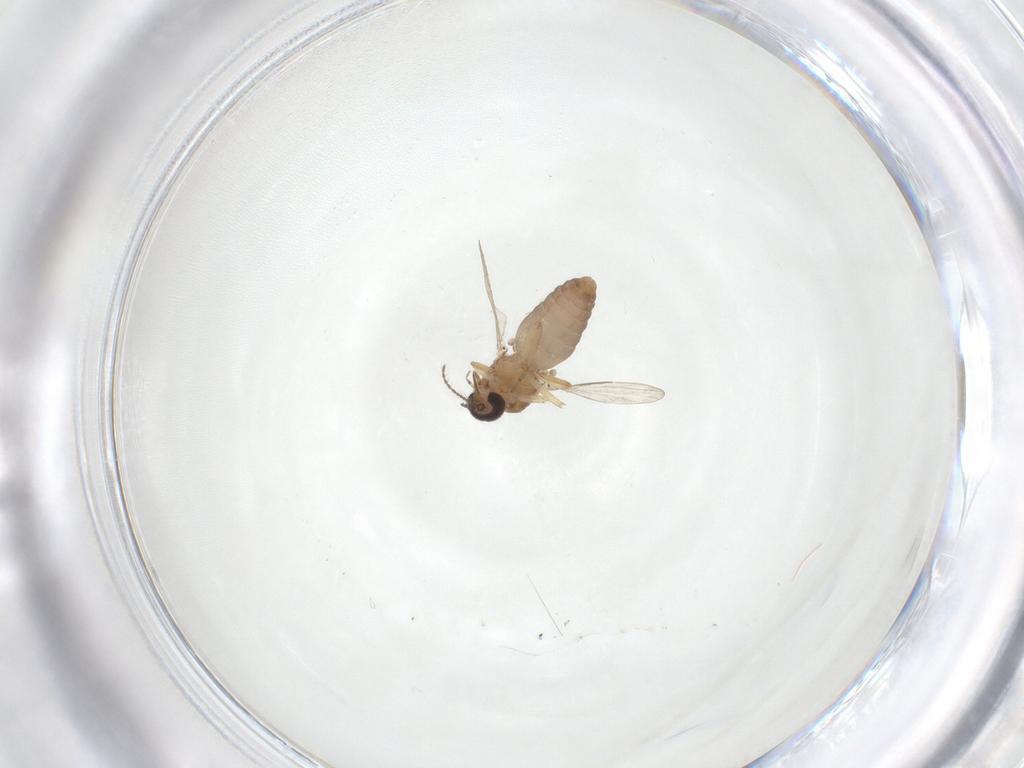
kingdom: Animalia
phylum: Arthropoda
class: Insecta
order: Diptera
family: Ceratopogonidae
